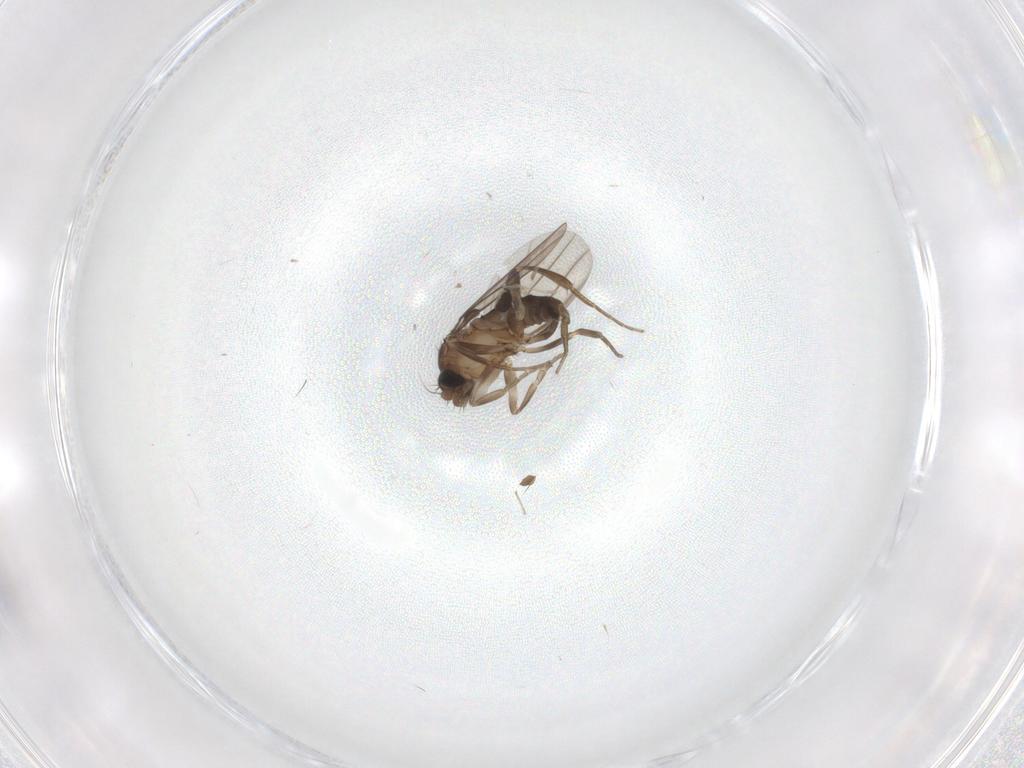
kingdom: Animalia
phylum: Arthropoda
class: Insecta
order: Diptera
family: Phoridae
